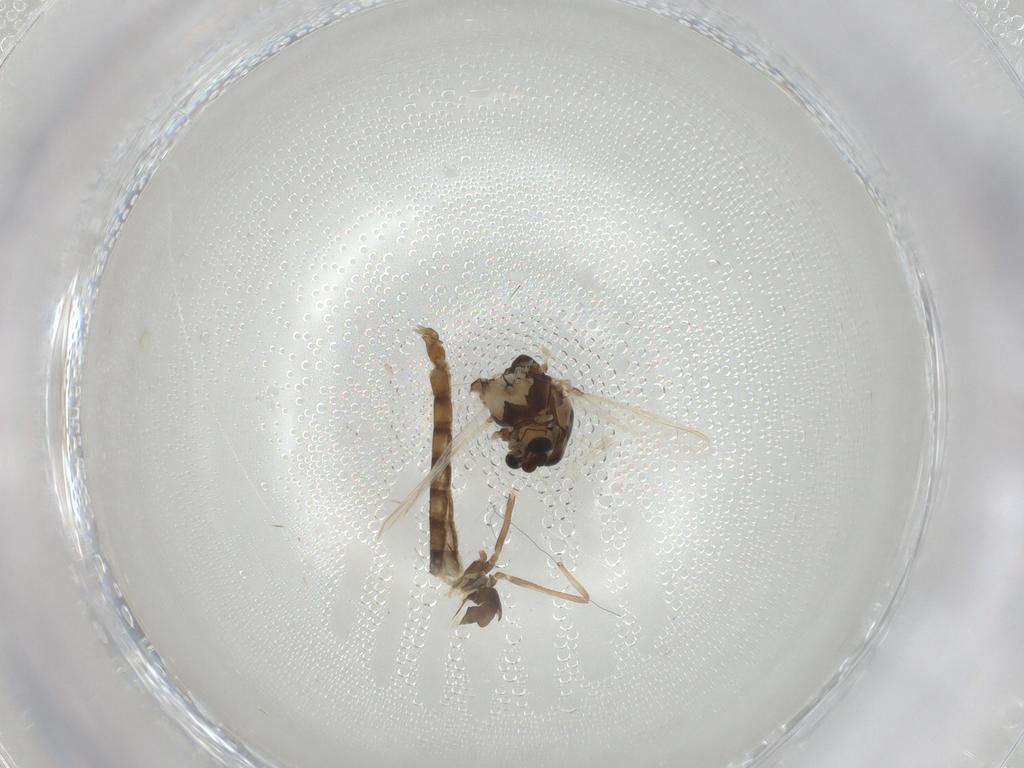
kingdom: Animalia
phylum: Arthropoda
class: Insecta
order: Diptera
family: Chironomidae
